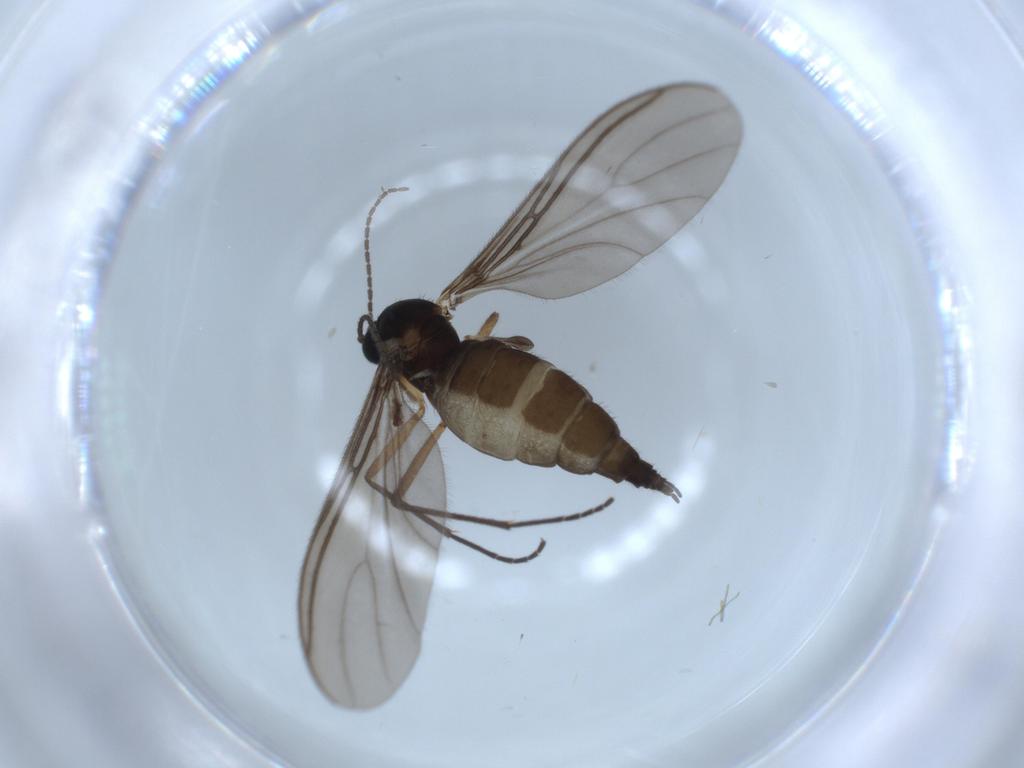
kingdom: Animalia
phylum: Arthropoda
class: Insecta
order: Diptera
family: Sciaridae
